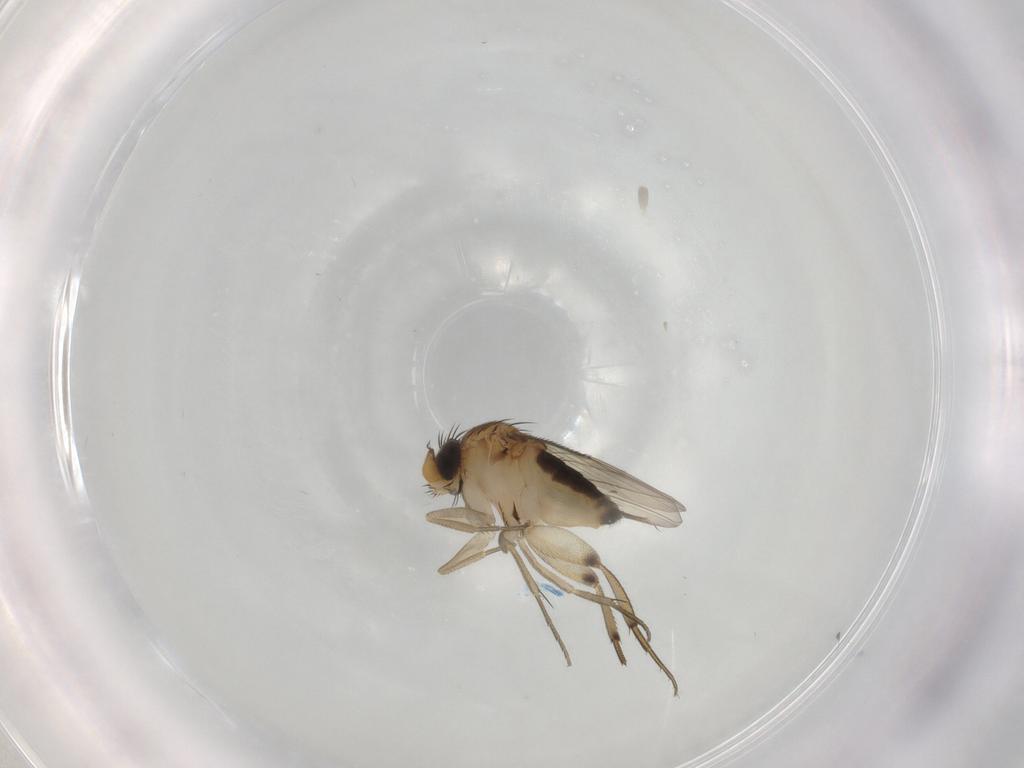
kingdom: Animalia
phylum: Arthropoda
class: Insecta
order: Diptera
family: Phoridae
